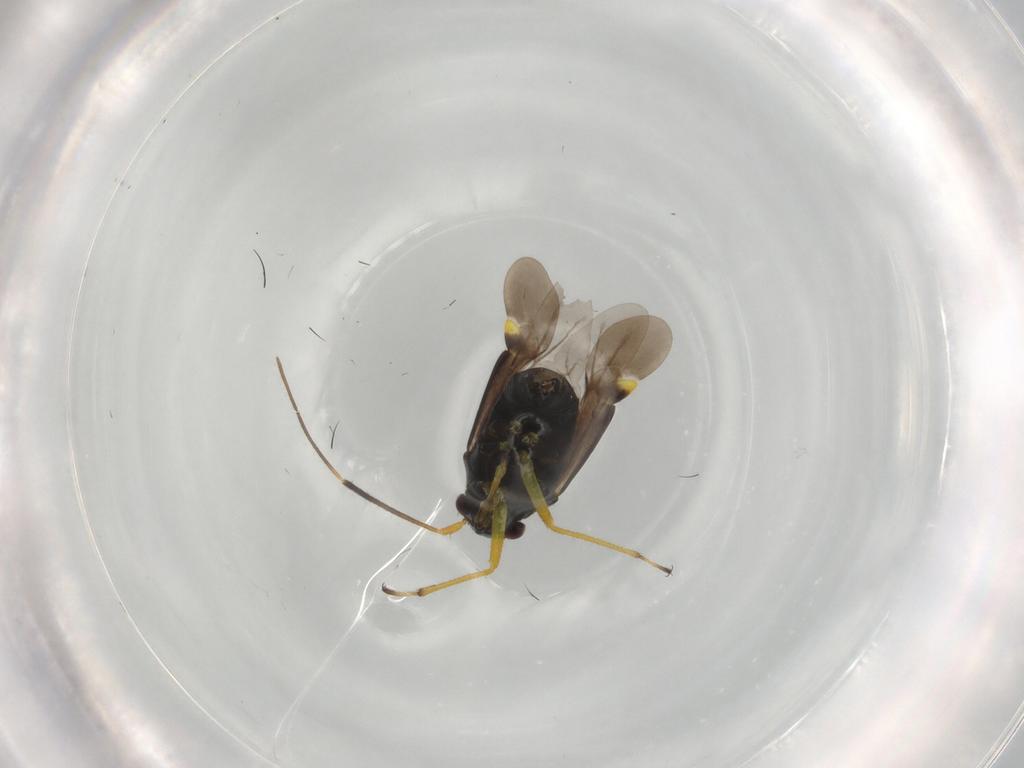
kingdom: Animalia
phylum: Arthropoda
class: Insecta
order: Hemiptera
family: Miridae
